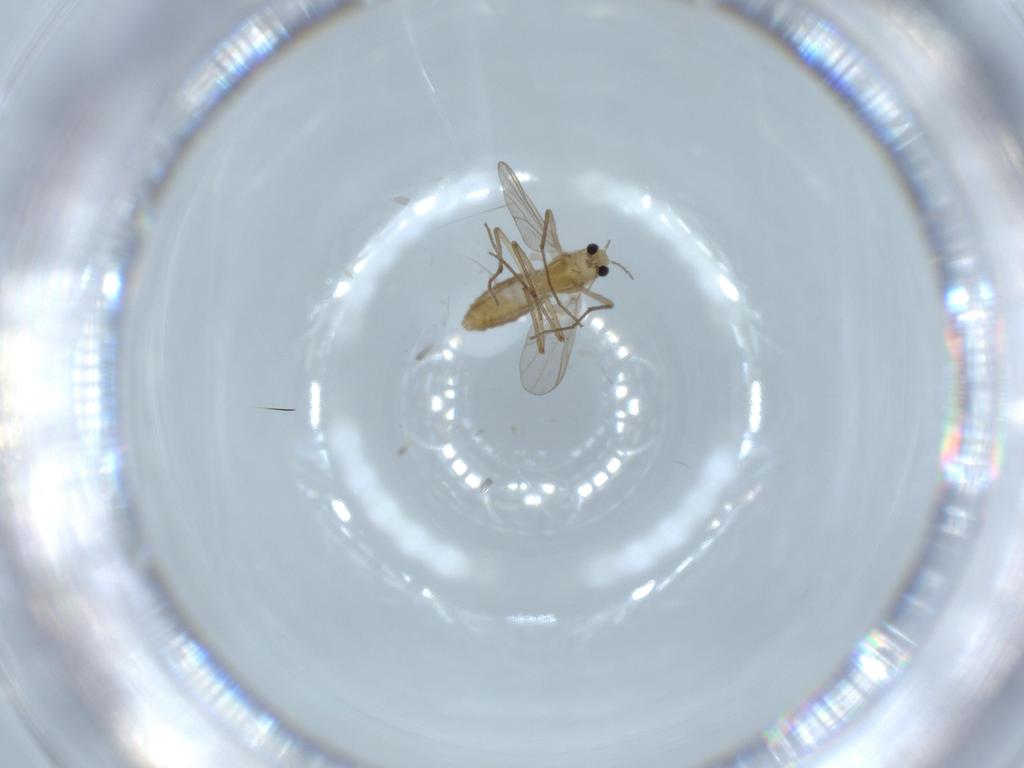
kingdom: Animalia
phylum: Arthropoda
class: Insecta
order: Diptera
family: Chironomidae
